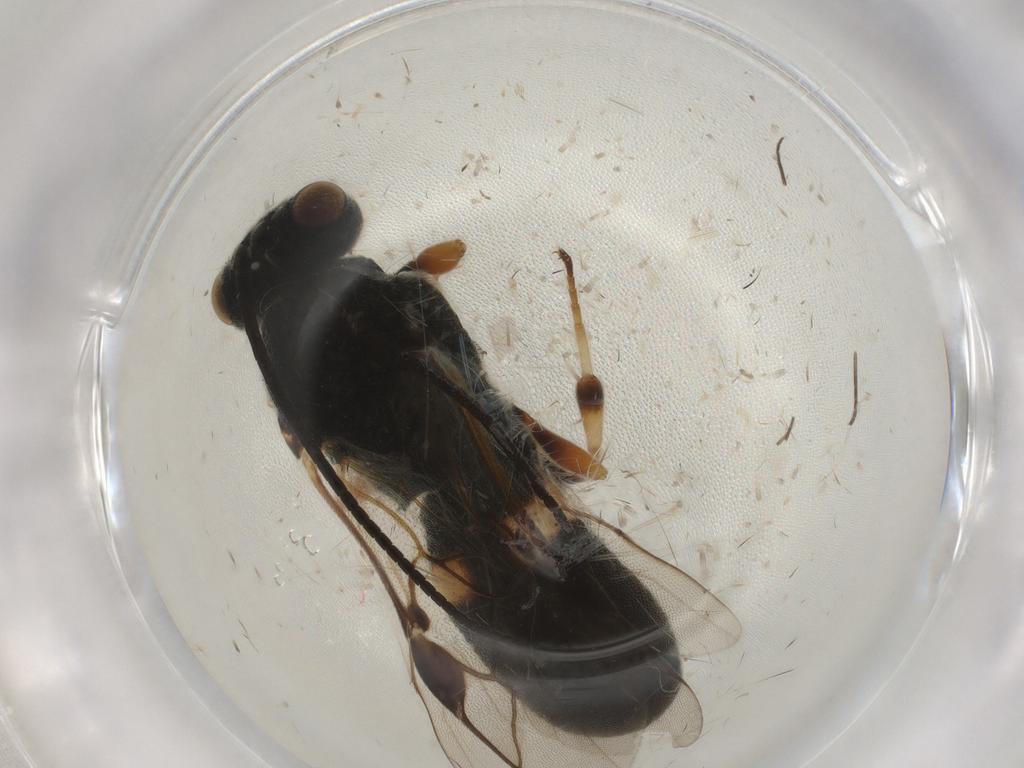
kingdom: Animalia
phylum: Arthropoda
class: Insecta
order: Hymenoptera
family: Braconidae
